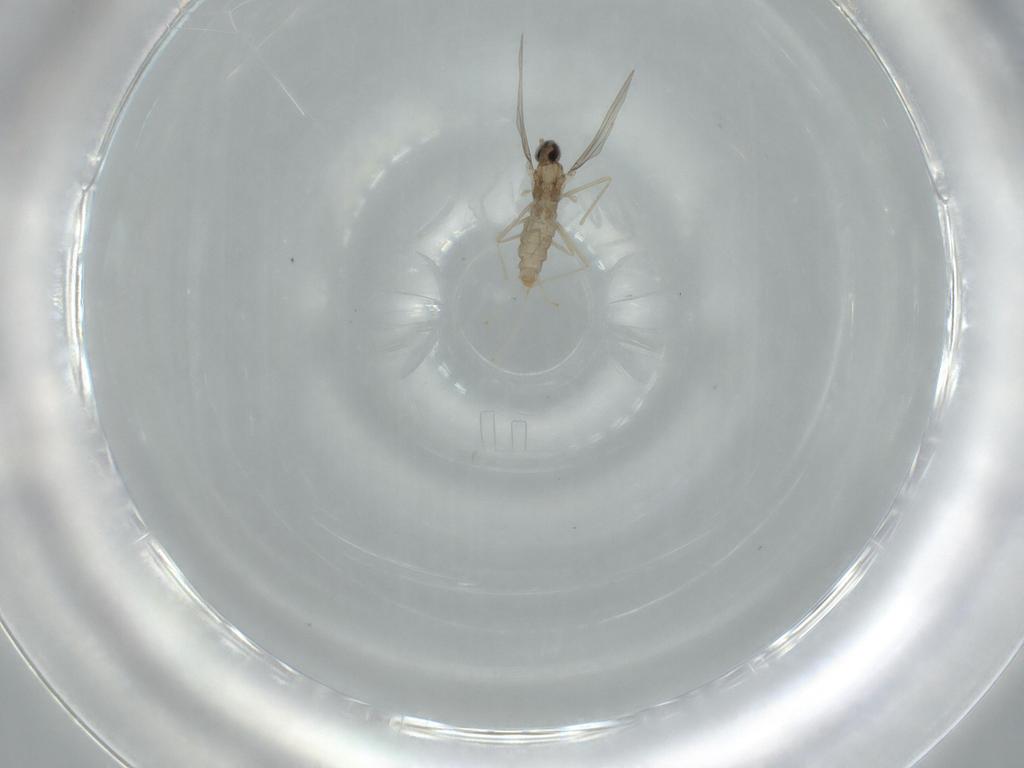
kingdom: Animalia
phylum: Arthropoda
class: Insecta
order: Diptera
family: Cecidomyiidae
